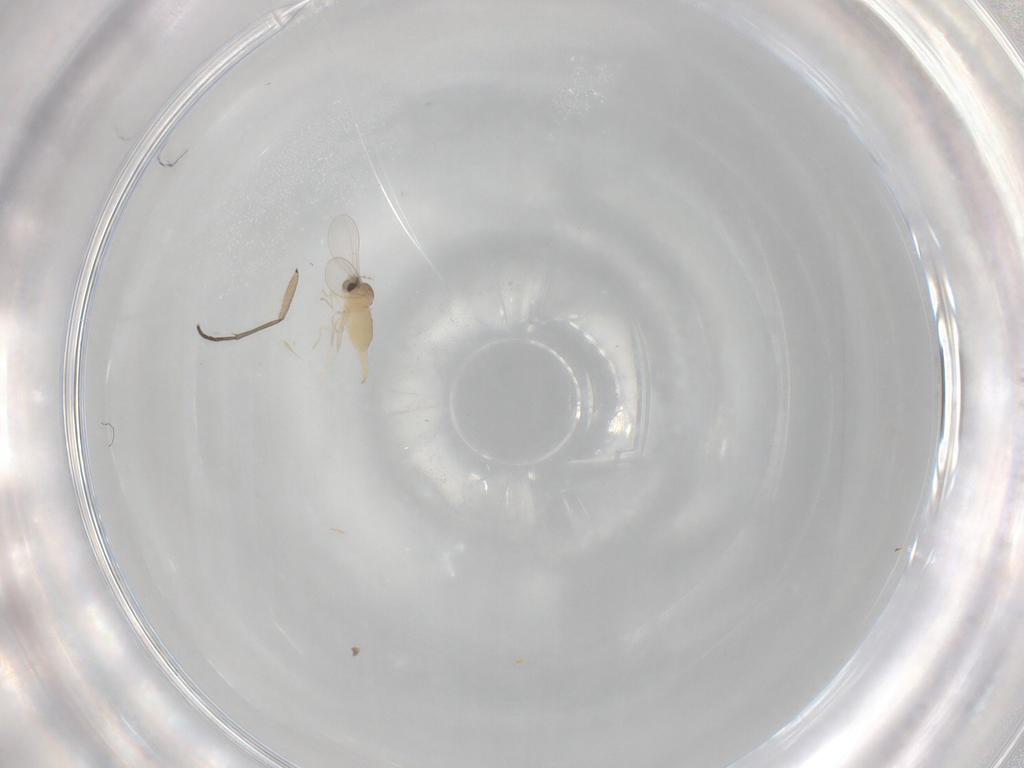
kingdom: Animalia
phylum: Arthropoda
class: Insecta
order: Diptera
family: Cecidomyiidae
